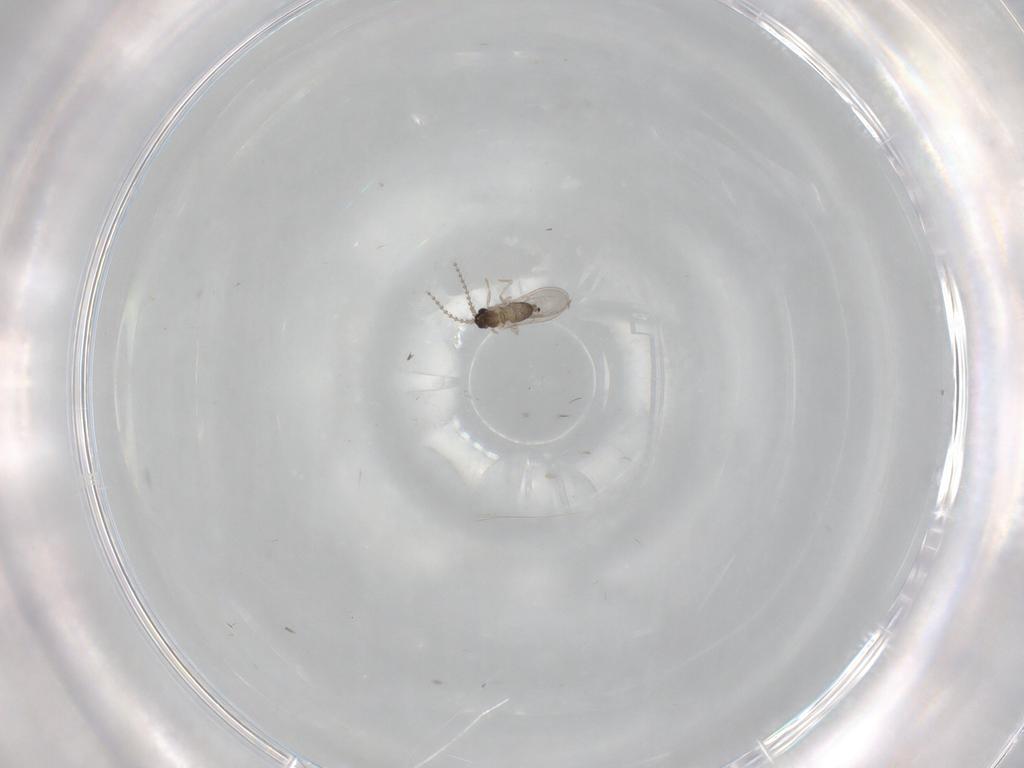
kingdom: Animalia
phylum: Arthropoda
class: Insecta
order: Diptera
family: Cecidomyiidae
